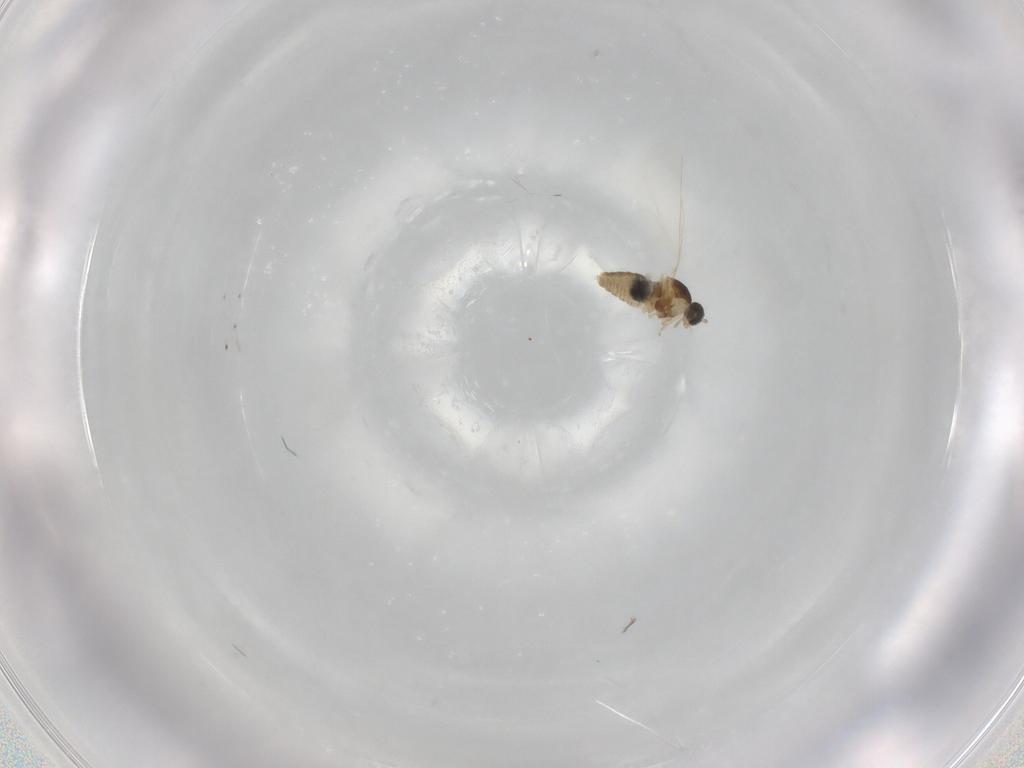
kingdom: Animalia
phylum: Arthropoda
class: Insecta
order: Diptera
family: Cecidomyiidae
